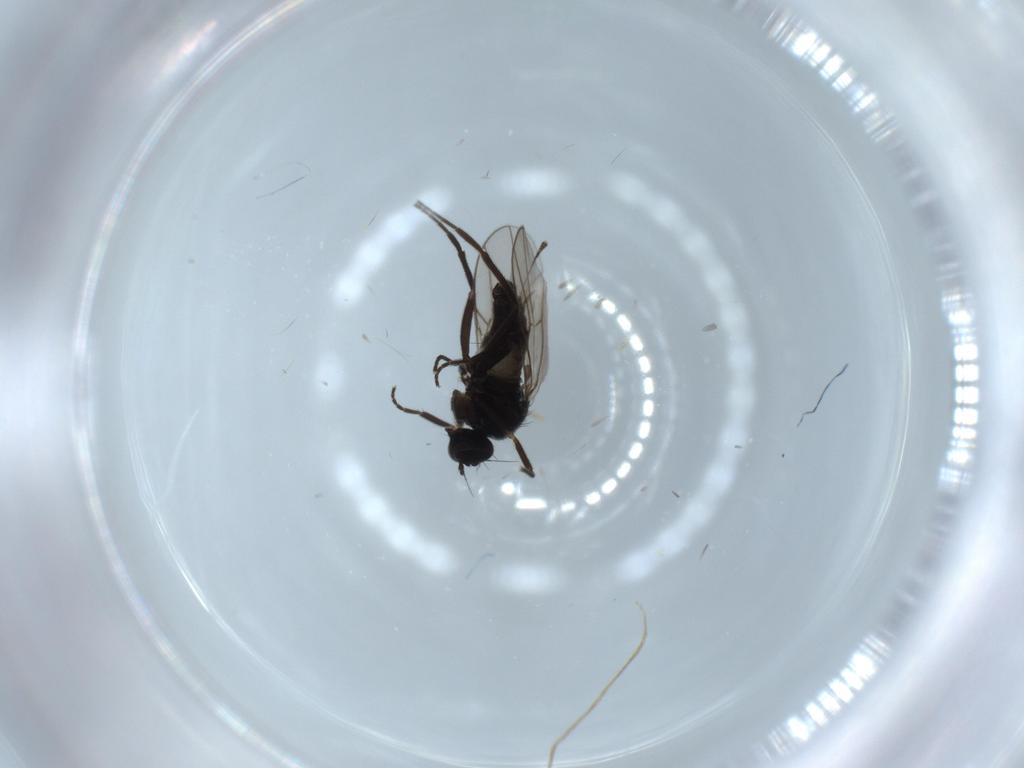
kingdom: Animalia
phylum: Arthropoda
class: Insecta
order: Diptera
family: Hybotidae
